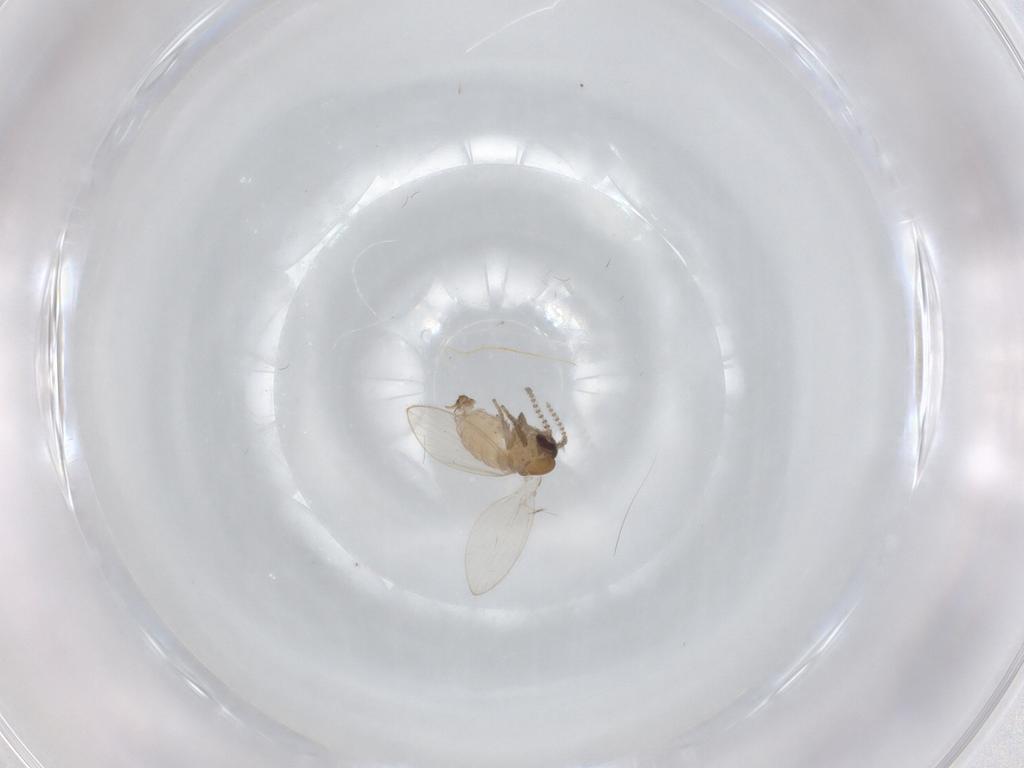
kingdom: Animalia
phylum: Arthropoda
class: Insecta
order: Diptera
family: Psychodidae
